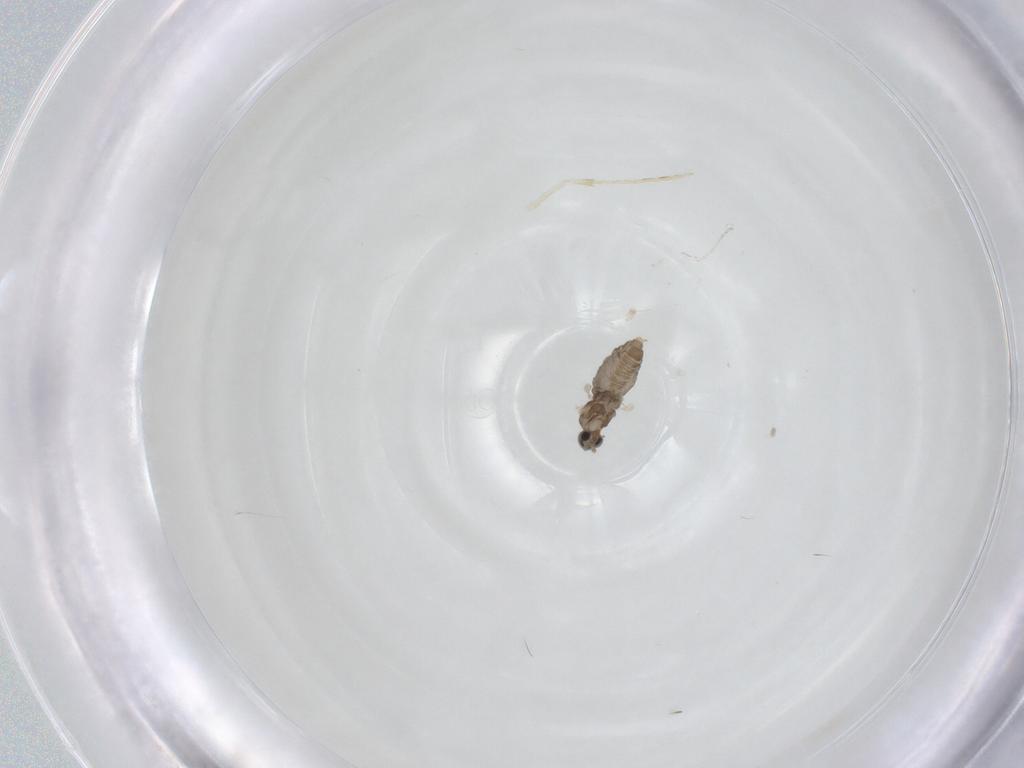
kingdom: Animalia
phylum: Arthropoda
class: Insecta
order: Diptera
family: Cecidomyiidae
